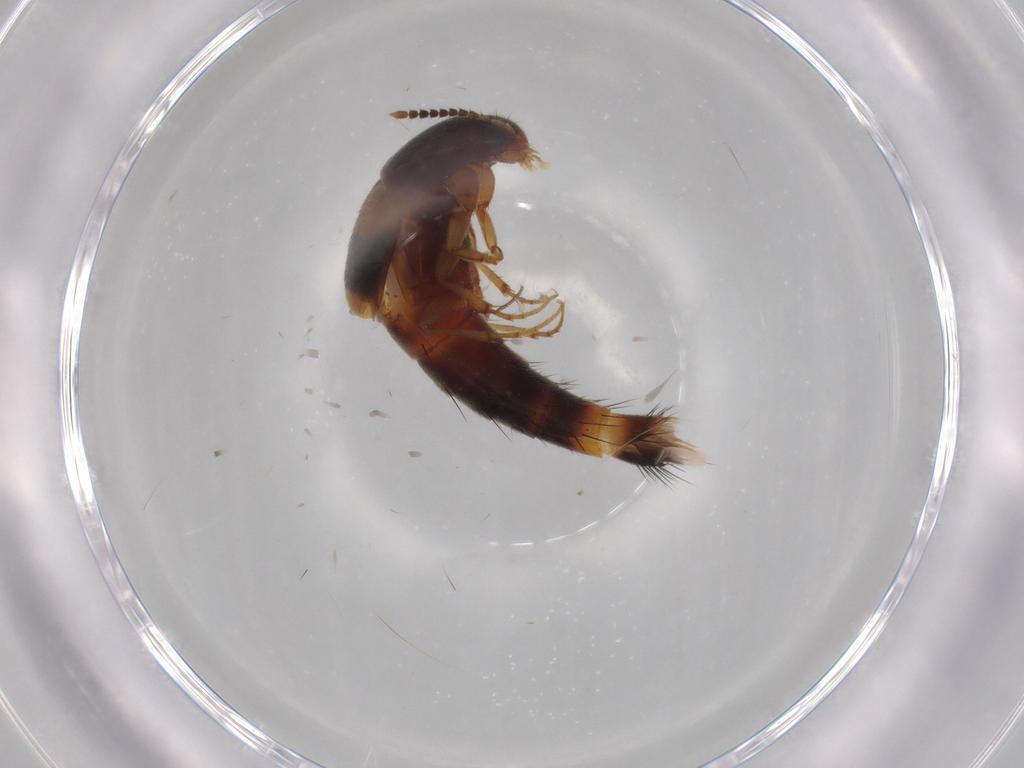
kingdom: Animalia
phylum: Arthropoda
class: Insecta
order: Coleoptera
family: Staphylinidae
